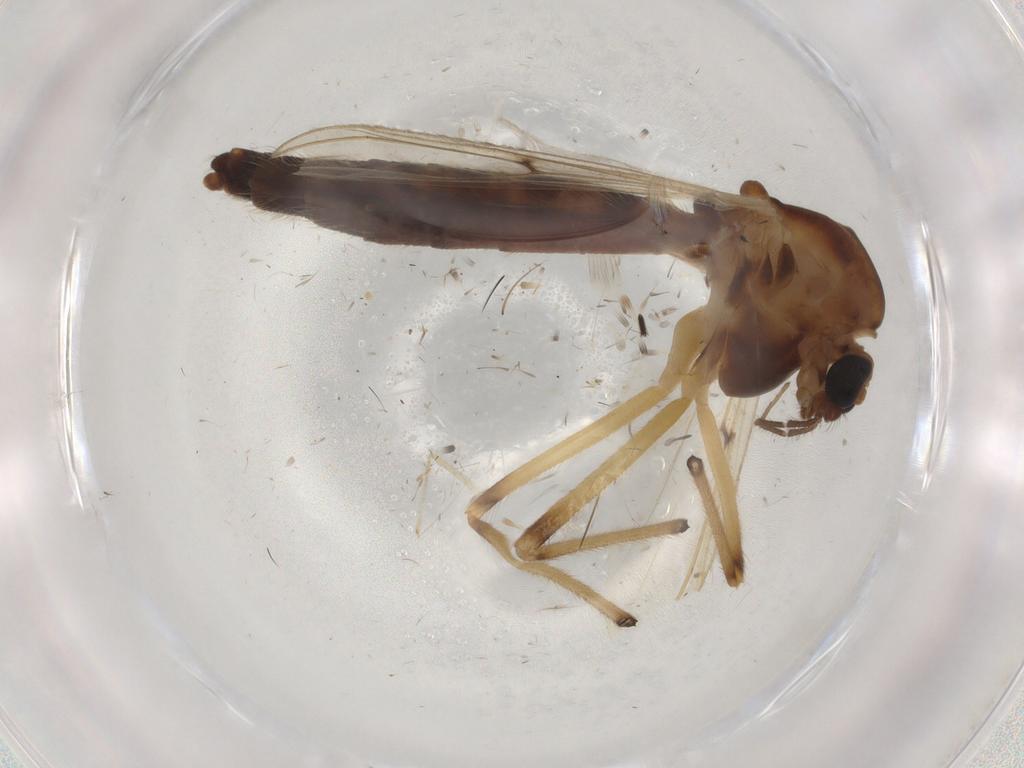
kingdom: Animalia
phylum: Arthropoda
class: Insecta
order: Diptera
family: Chironomidae
